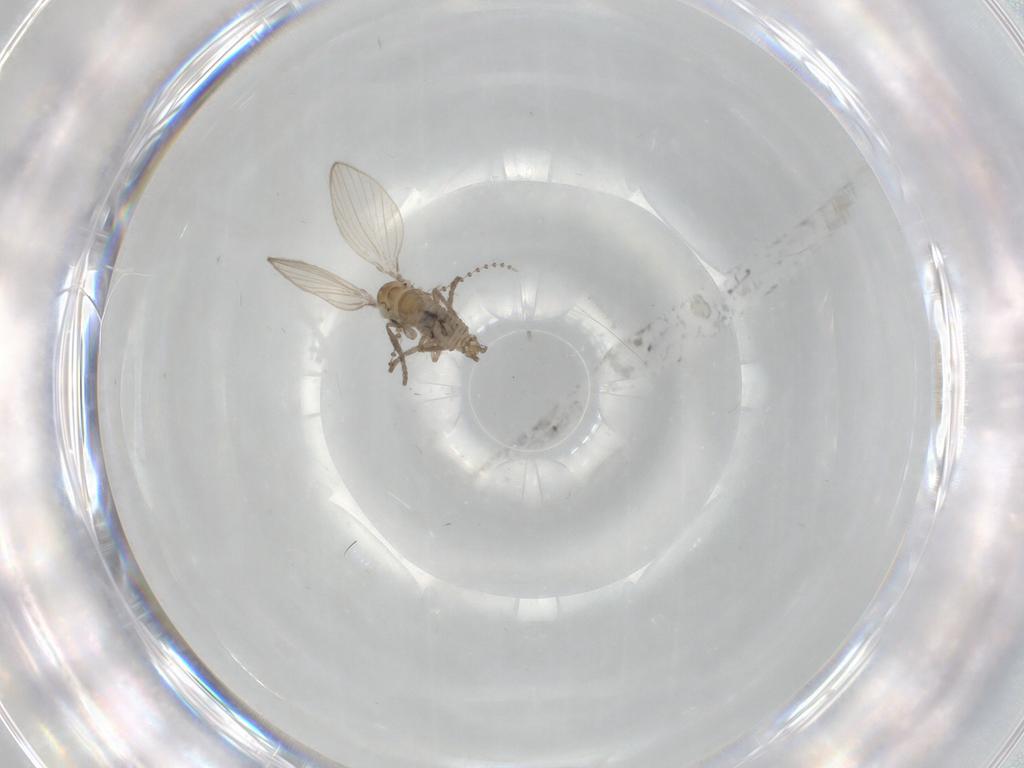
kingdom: Animalia
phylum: Arthropoda
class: Insecta
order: Diptera
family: Psychodidae
